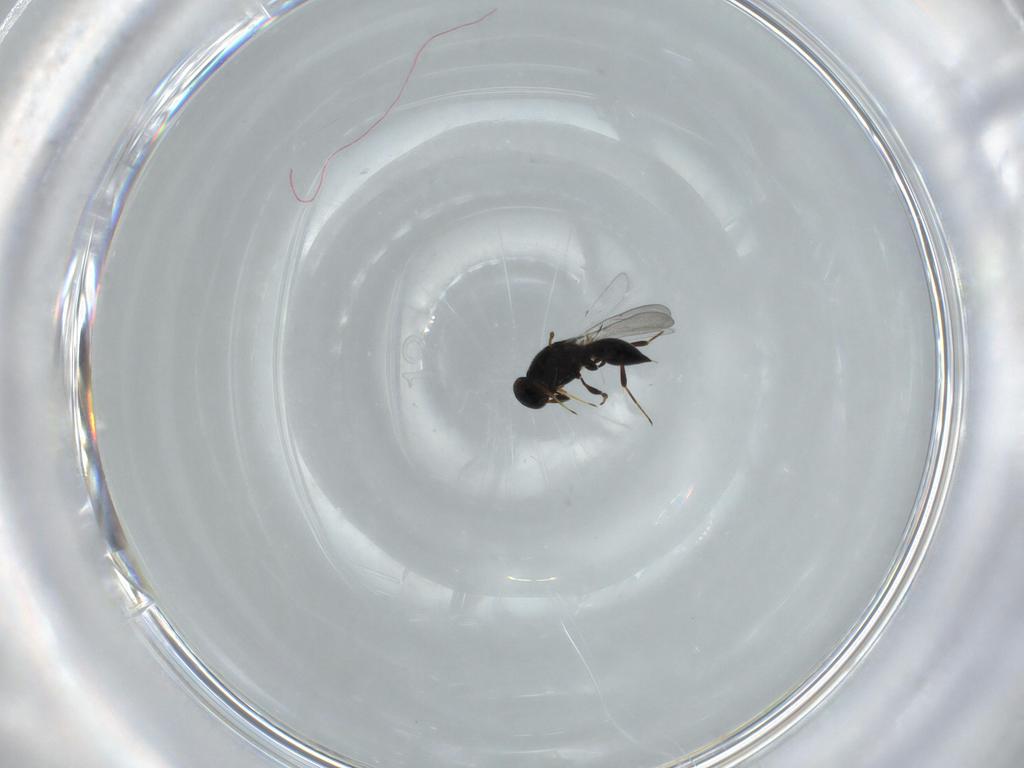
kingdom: Animalia
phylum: Arthropoda
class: Insecta
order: Hymenoptera
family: Platygastridae
